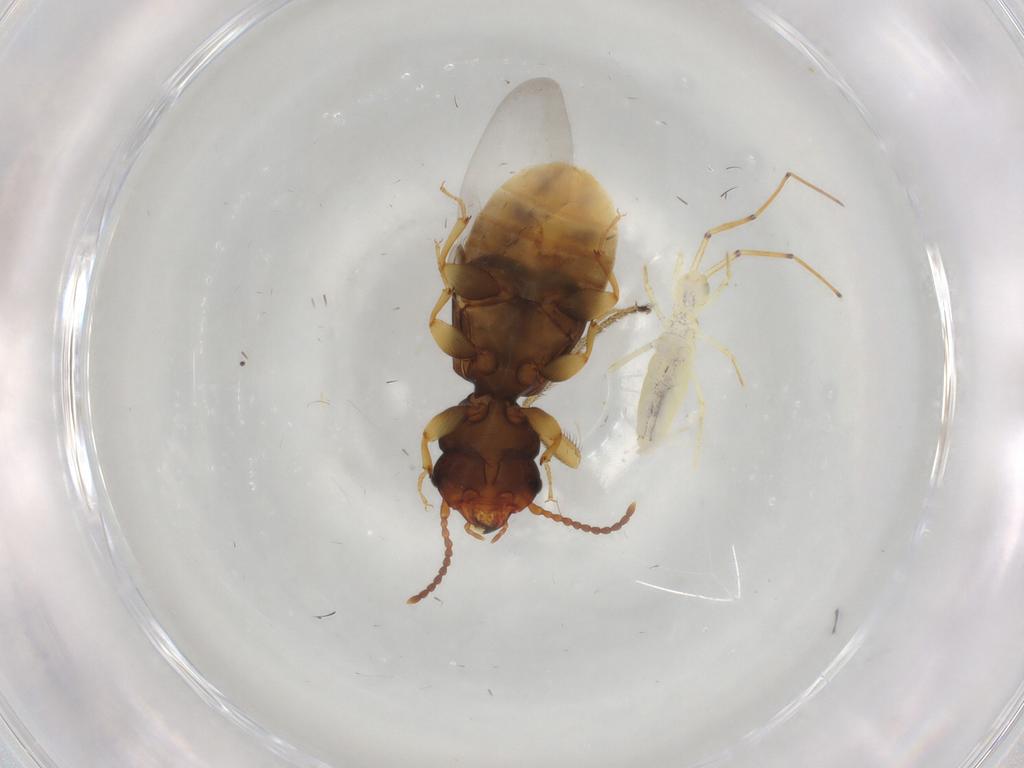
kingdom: Animalia
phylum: Arthropoda
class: Insecta
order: Coleoptera
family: Salpingidae
